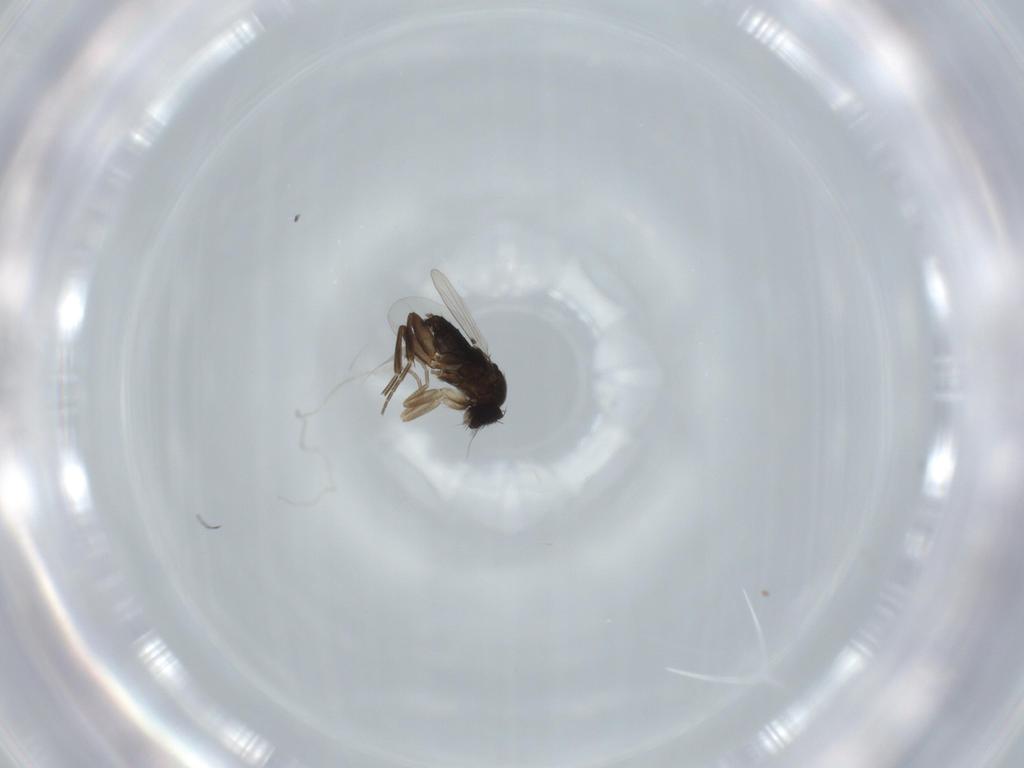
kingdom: Animalia
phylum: Arthropoda
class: Insecta
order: Diptera
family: Phoridae
